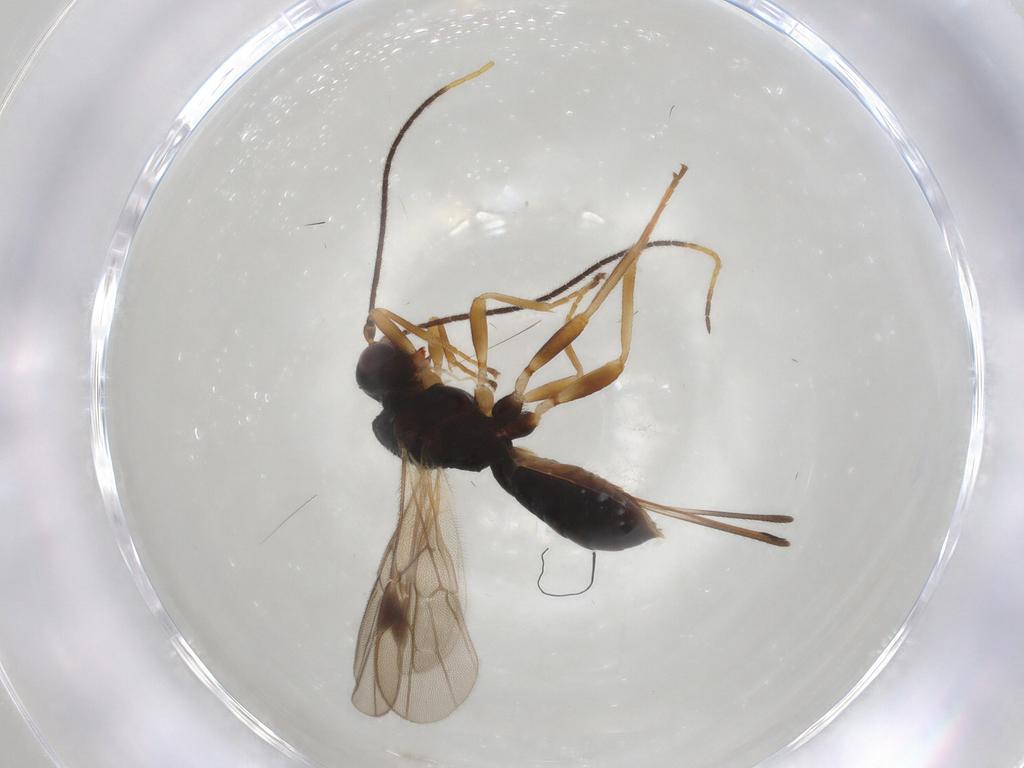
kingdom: Animalia
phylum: Arthropoda
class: Insecta
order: Hymenoptera
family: Braconidae
